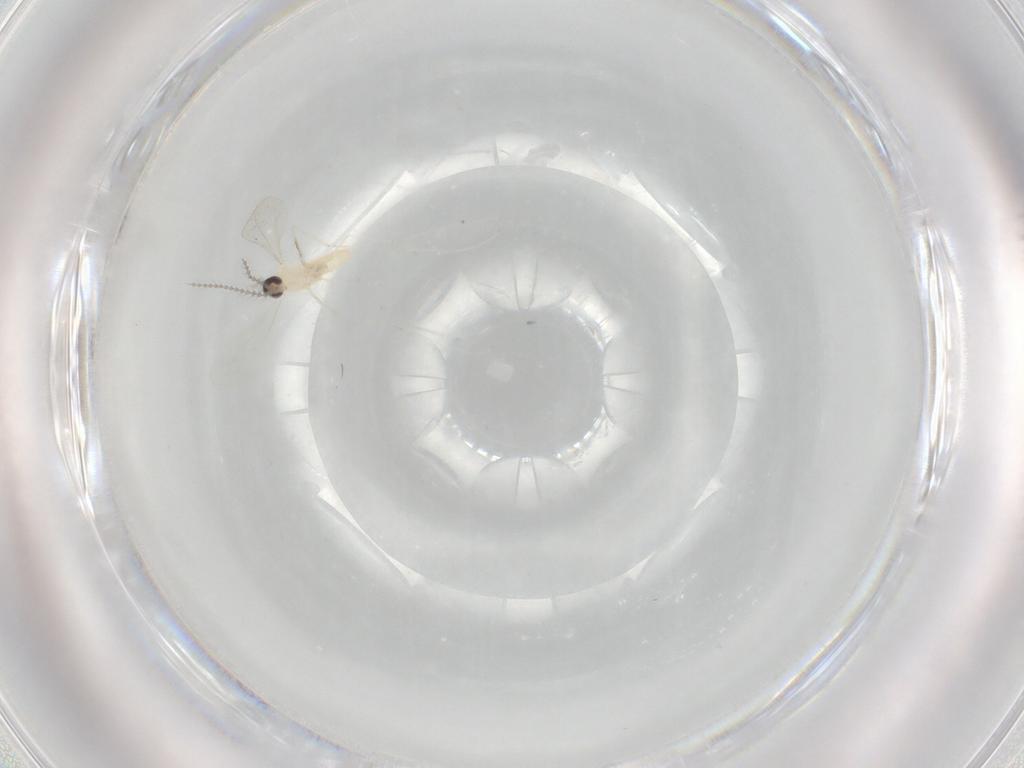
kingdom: Animalia
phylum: Arthropoda
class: Insecta
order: Diptera
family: Cecidomyiidae
